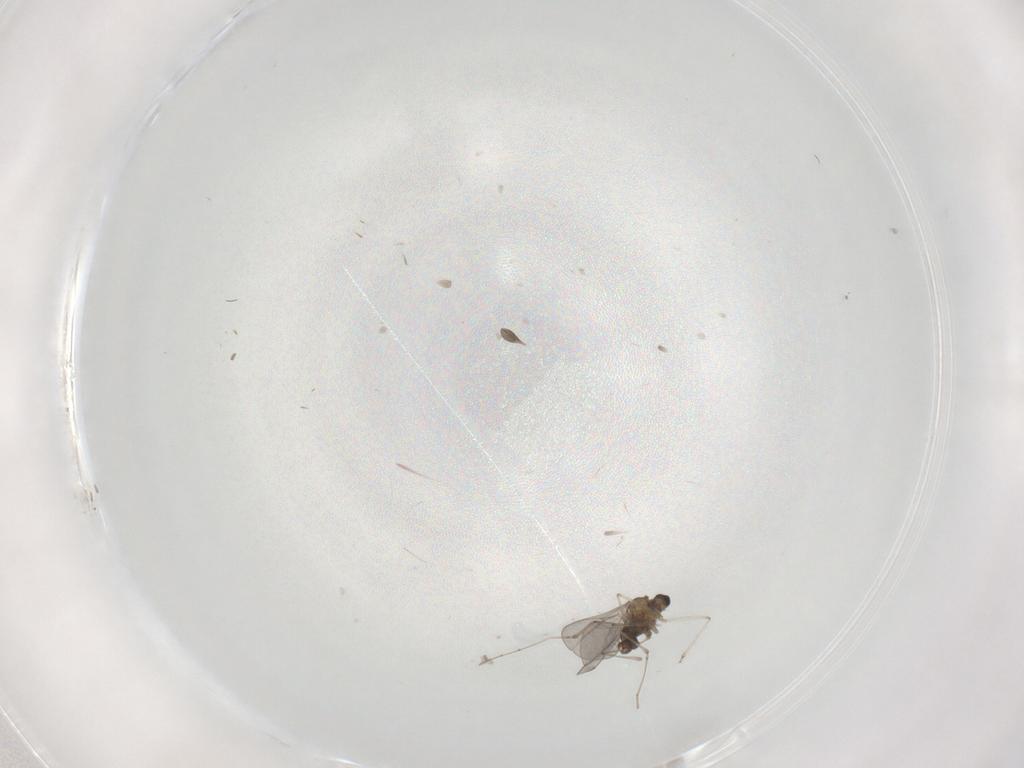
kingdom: Animalia
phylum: Arthropoda
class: Insecta
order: Diptera
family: Cecidomyiidae
